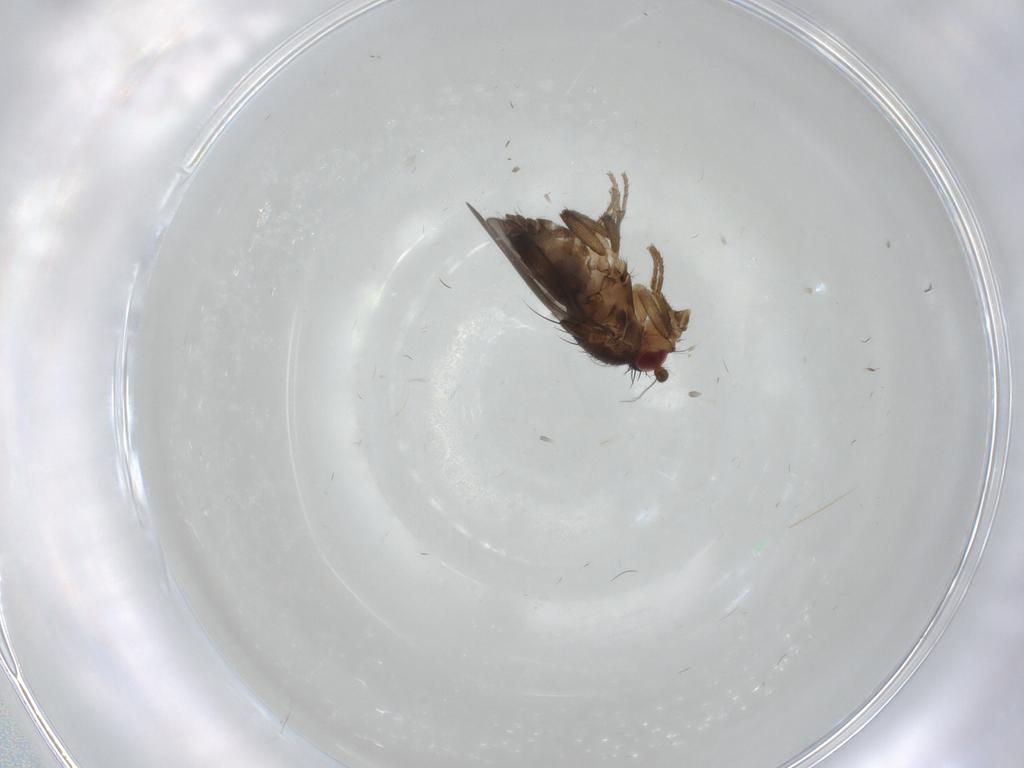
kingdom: Animalia
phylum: Arthropoda
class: Insecta
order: Diptera
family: Sphaeroceridae
